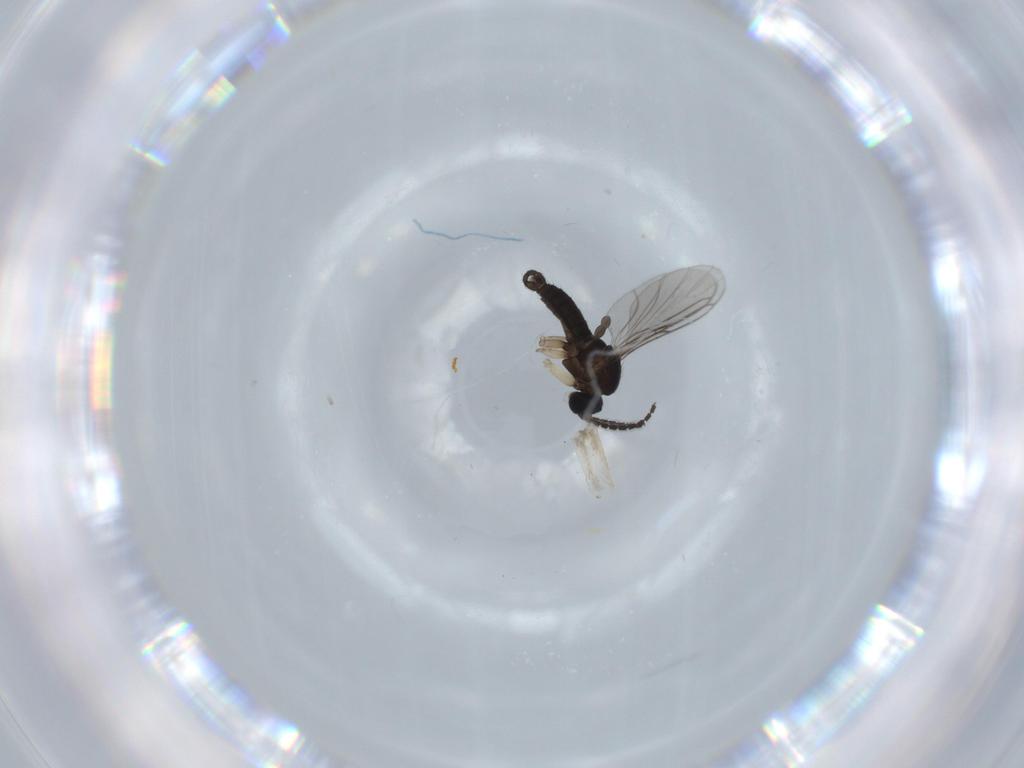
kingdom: Animalia
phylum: Arthropoda
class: Insecta
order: Diptera
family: Sciaridae
